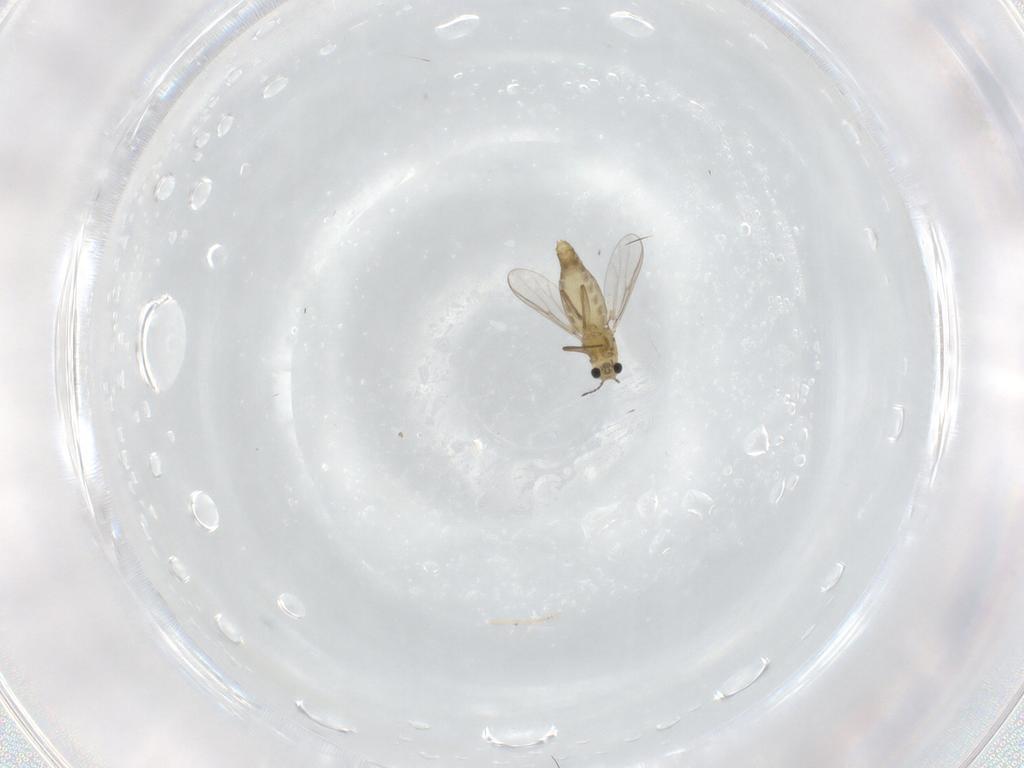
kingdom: Animalia
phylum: Arthropoda
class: Insecta
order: Diptera
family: Chironomidae
